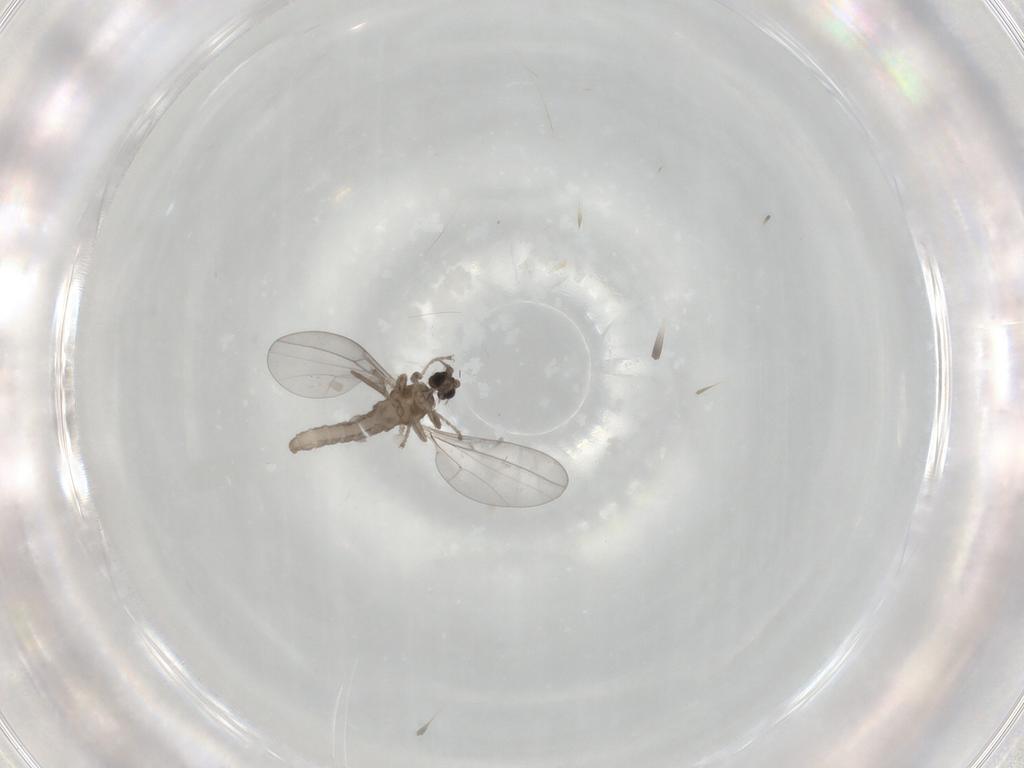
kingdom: Animalia
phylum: Arthropoda
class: Insecta
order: Diptera
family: Cecidomyiidae
